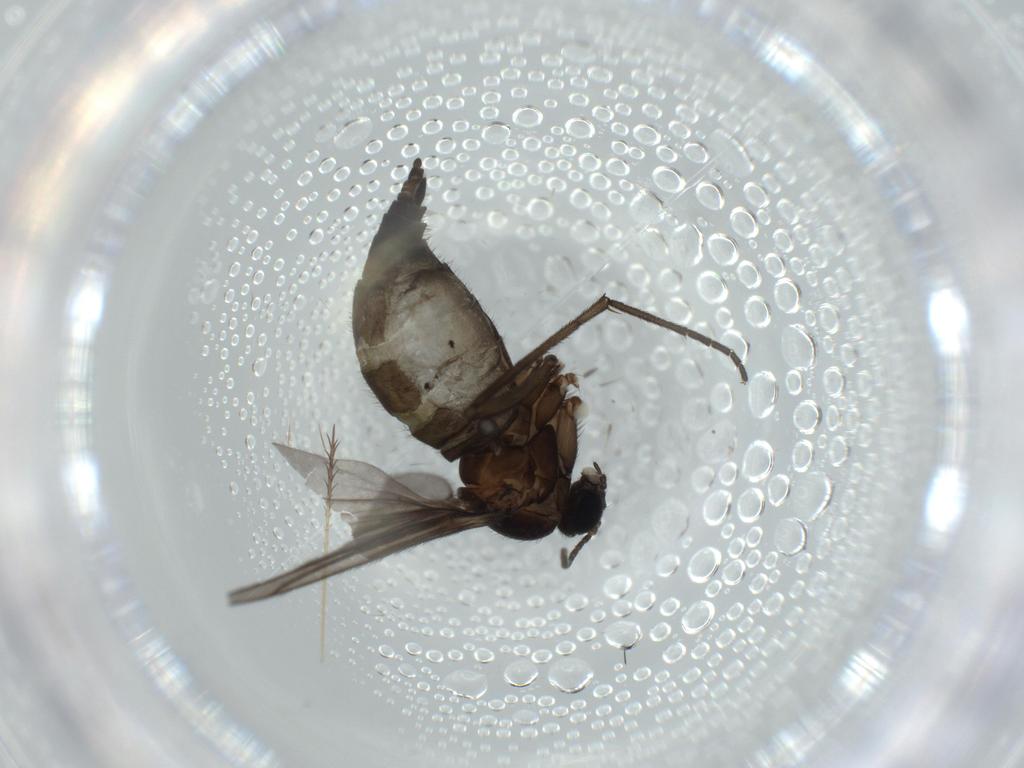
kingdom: Animalia
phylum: Arthropoda
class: Insecta
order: Diptera
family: Sciaridae
